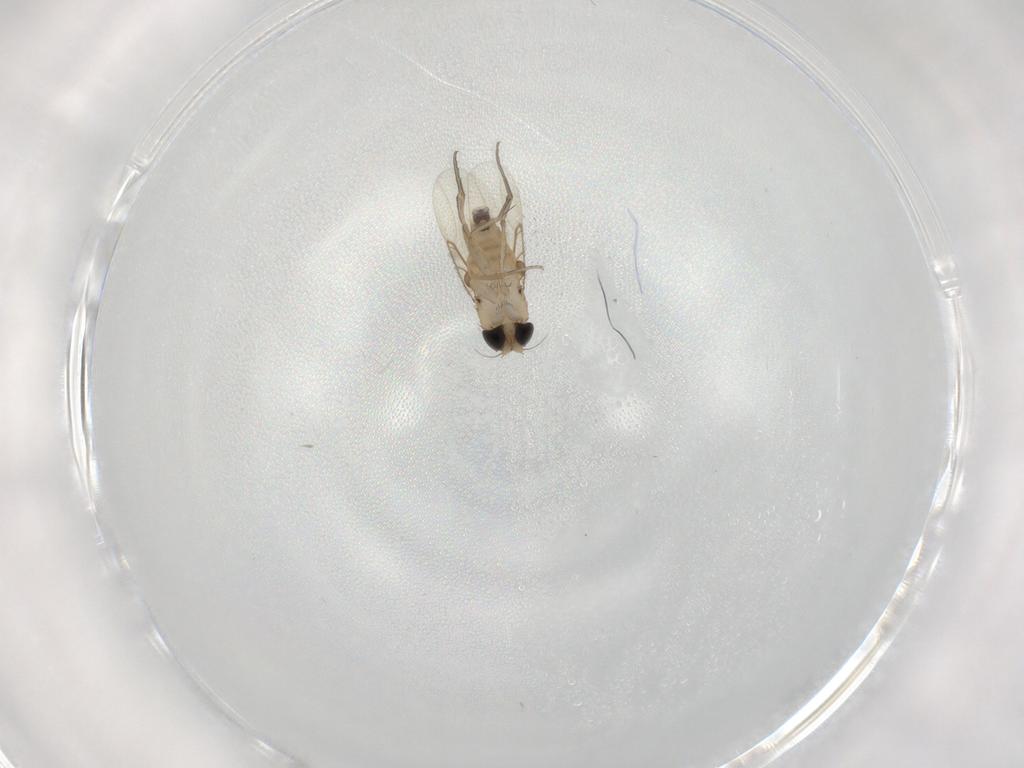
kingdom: Animalia
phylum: Arthropoda
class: Insecta
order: Diptera
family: Phoridae
